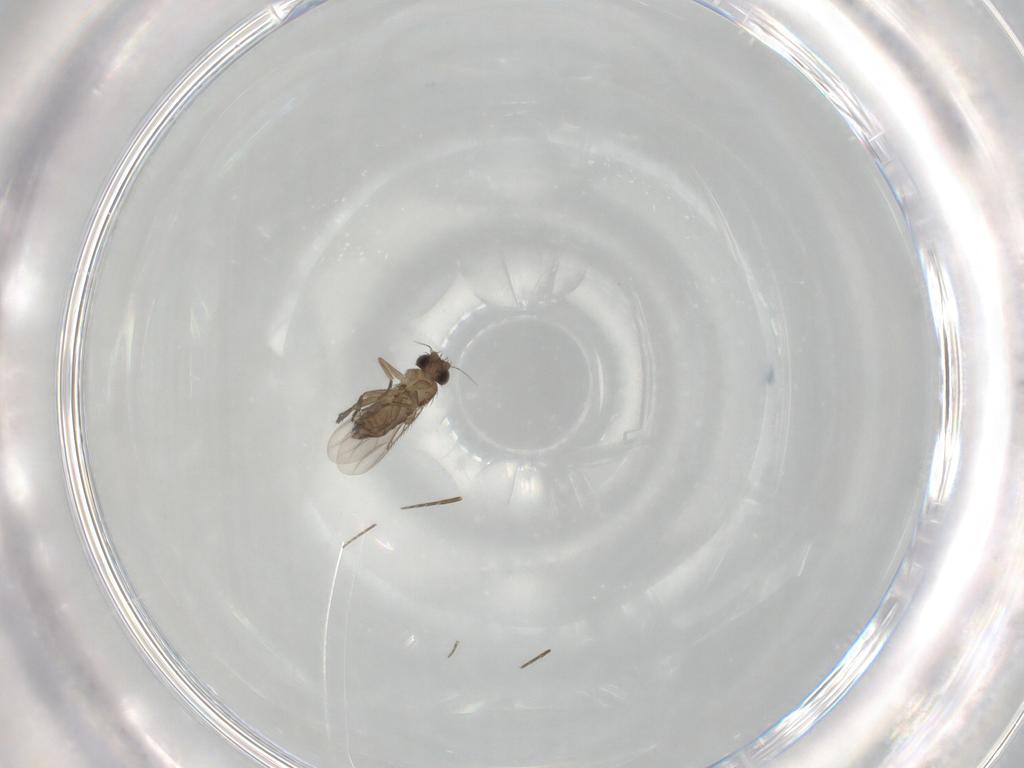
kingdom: Animalia
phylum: Arthropoda
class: Insecta
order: Diptera
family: Phoridae
